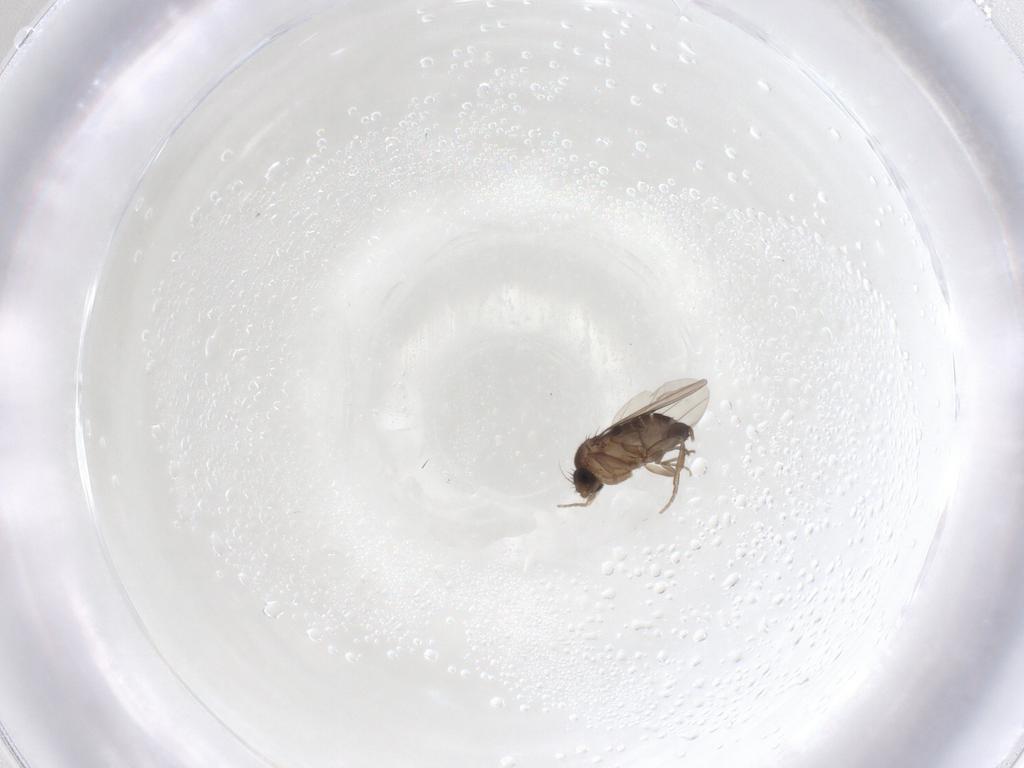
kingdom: Animalia
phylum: Arthropoda
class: Insecta
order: Diptera
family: Phoridae
